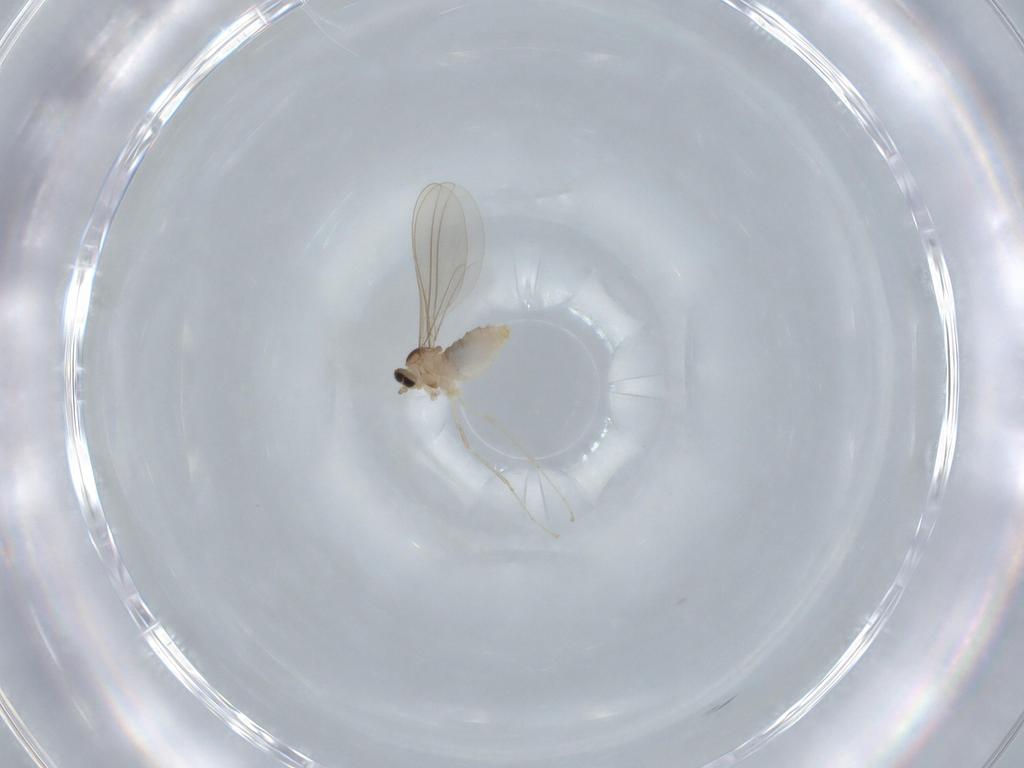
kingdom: Animalia
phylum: Arthropoda
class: Insecta
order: Diptera
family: Cecidomyiidae
